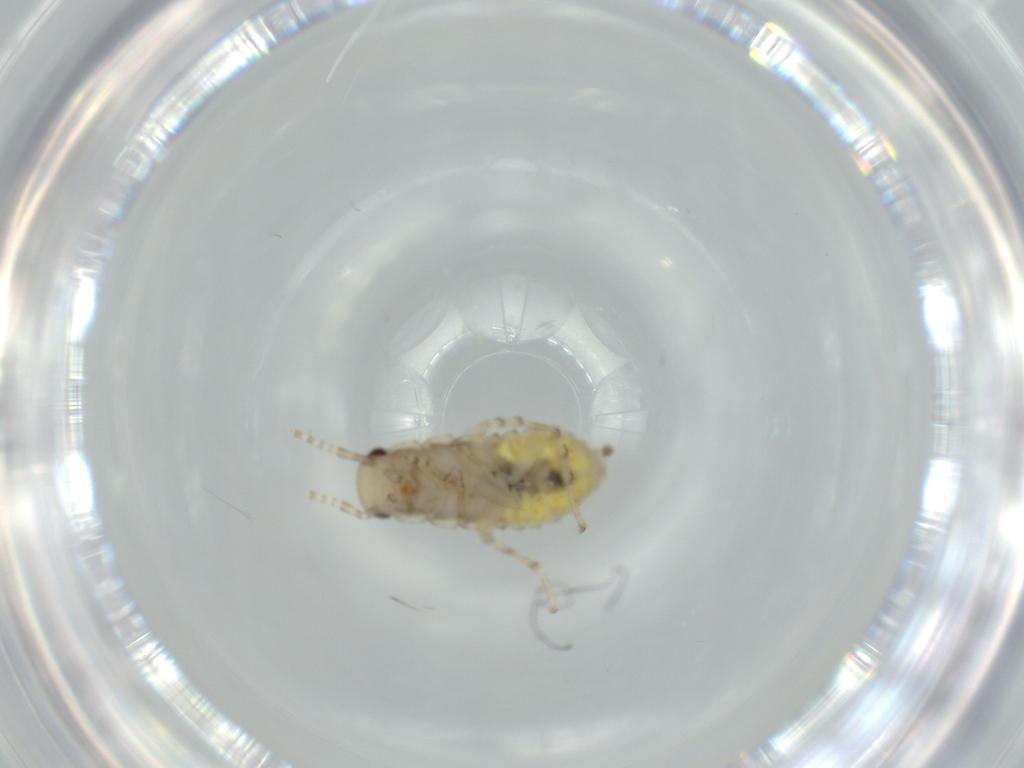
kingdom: Animalia
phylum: Arthropoda
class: Insecta
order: Blattodea
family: Ectobiidae
